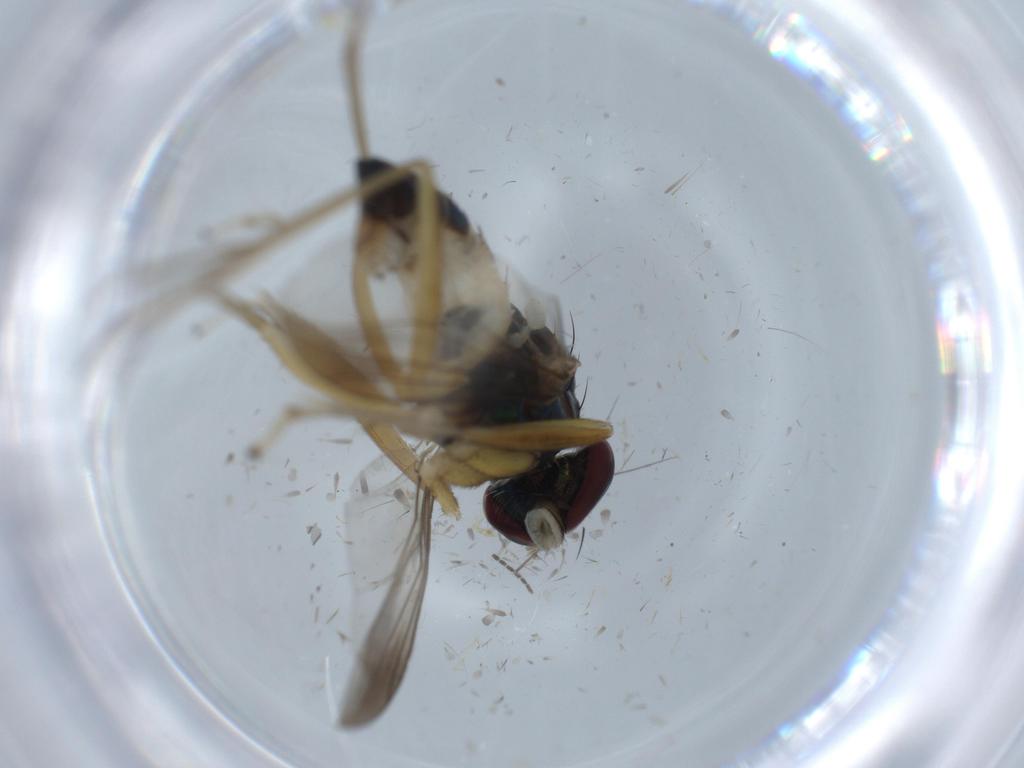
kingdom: Animalia
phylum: Arthropoda
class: Insecta
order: Diptera
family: Dolichopodidae
